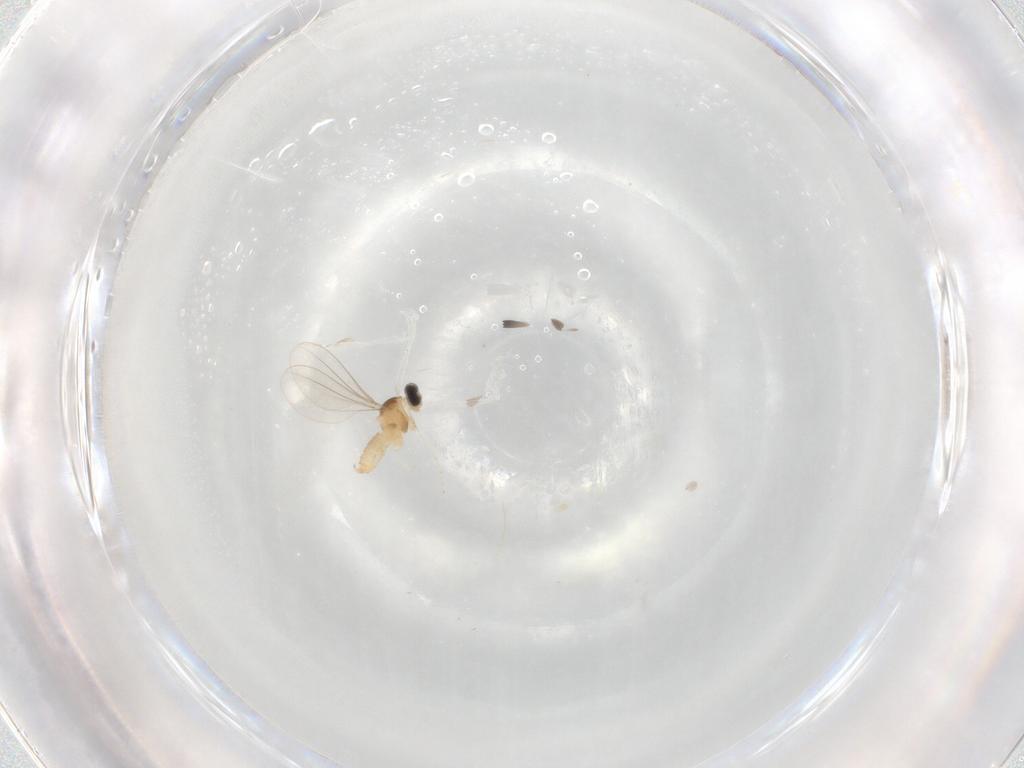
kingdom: Animalia
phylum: Arthropoda
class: Insecta
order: Diptera
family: Cecidomyiidae
